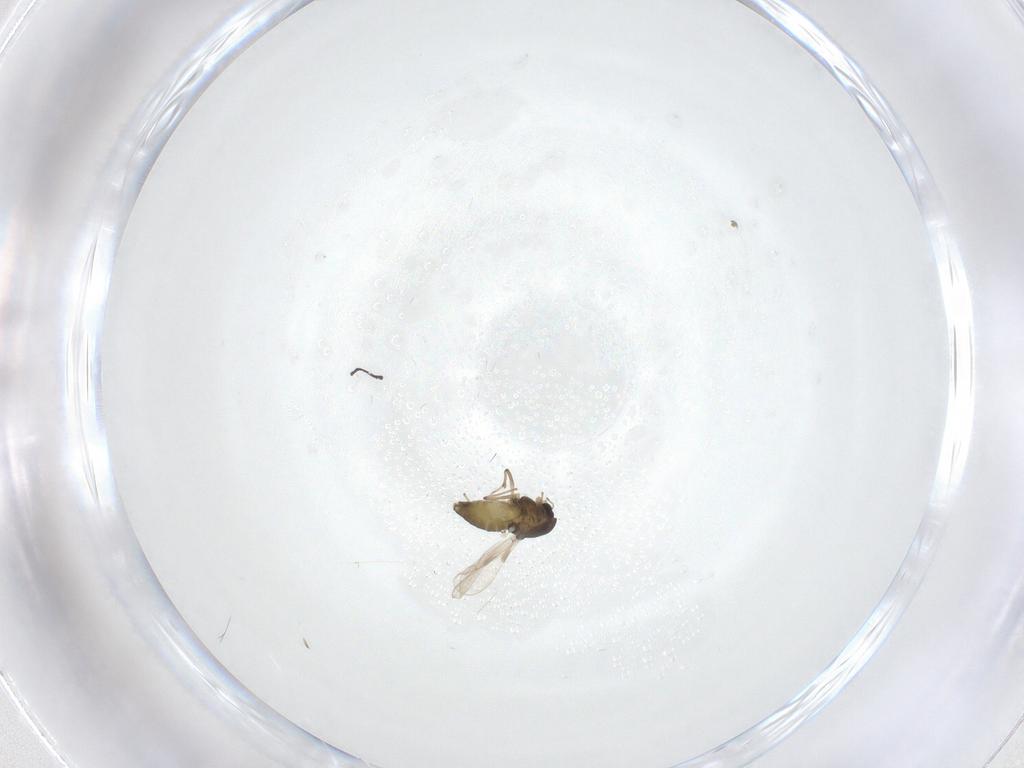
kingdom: Animalia
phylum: Arthropoda
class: Insecta
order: Diptera
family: Chironomidae
